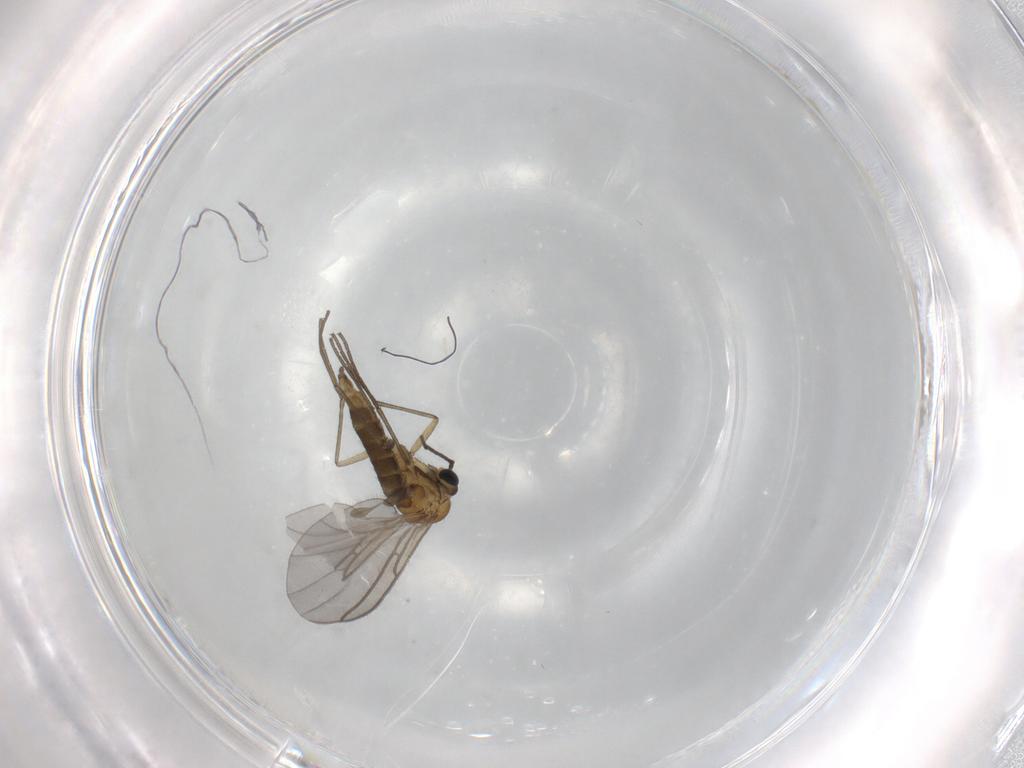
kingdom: Animalia
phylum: Arthropoda
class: Insecta
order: Diptera
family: Sciaridae
